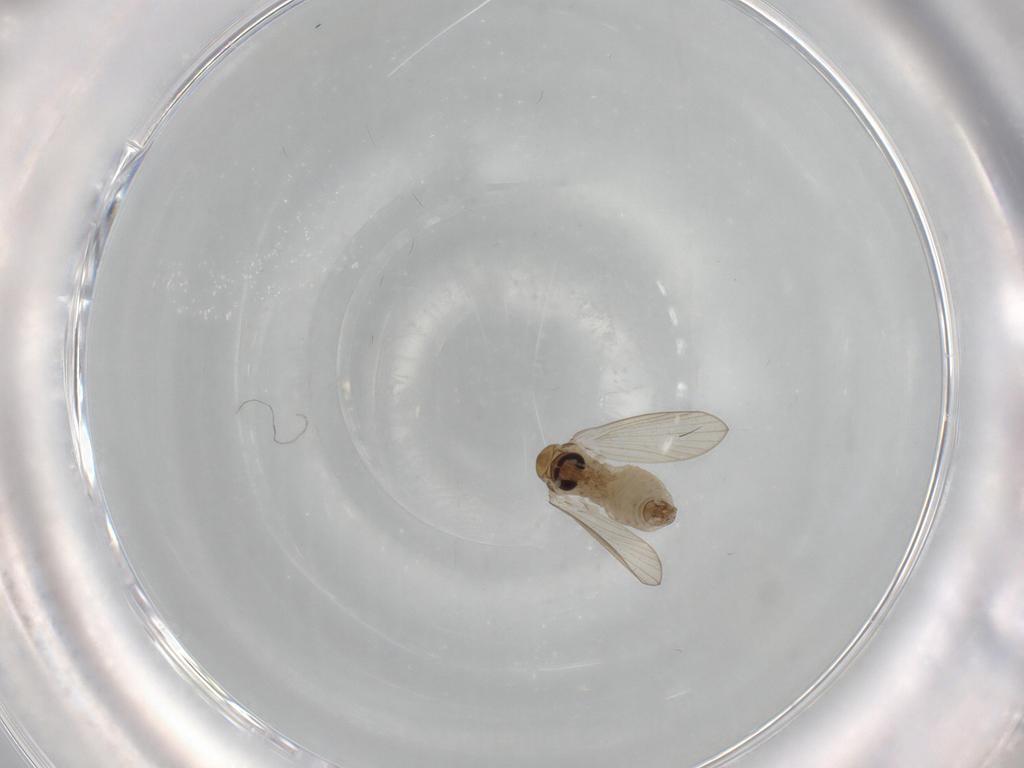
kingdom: Animalia
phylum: Arthropoda
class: Insecta
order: Diptera
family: Psychodidae
